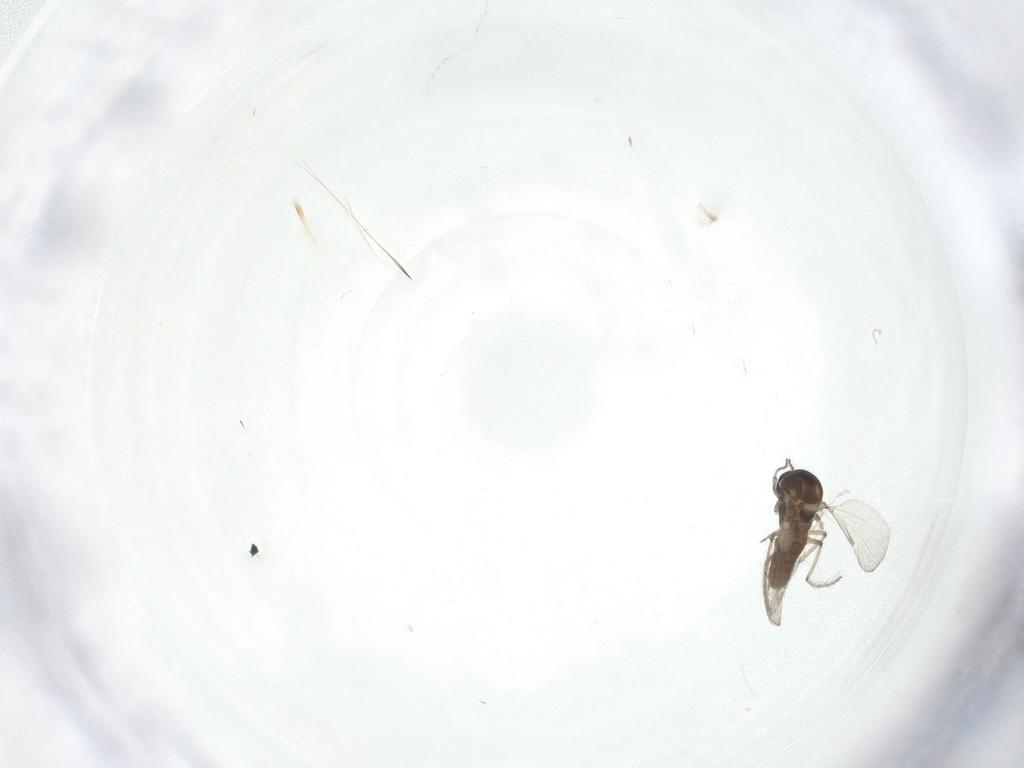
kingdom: Animalia
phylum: Arthropoda
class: Insecta
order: Diptera
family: Ceratopogonidae
